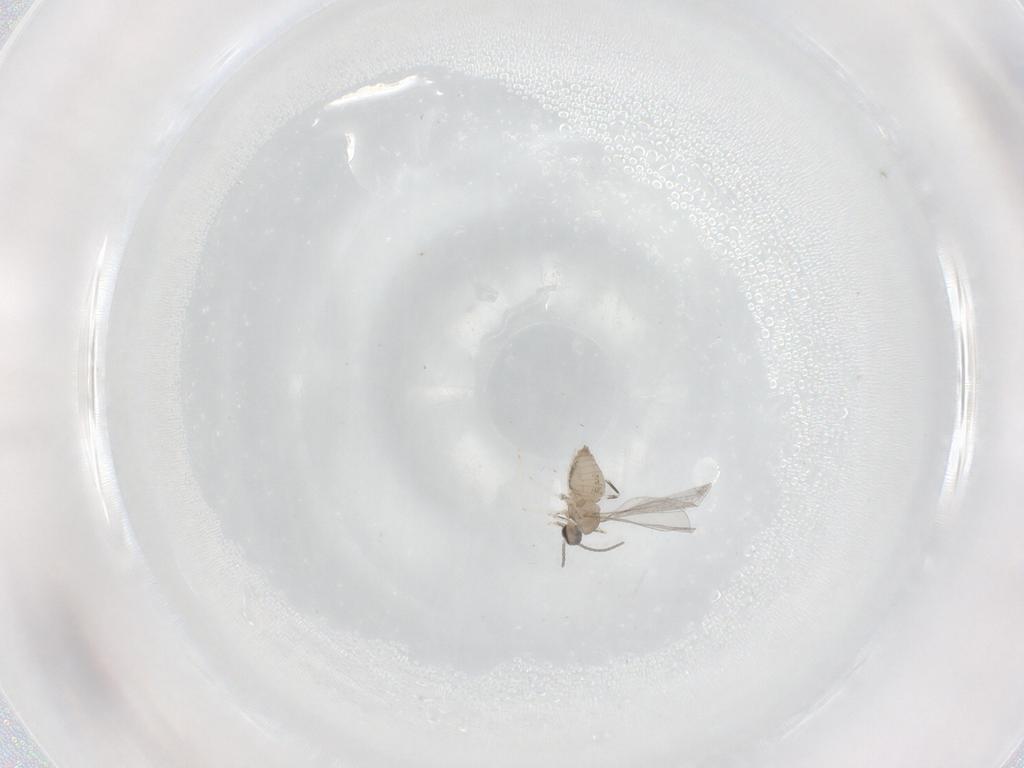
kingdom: Animalia
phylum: Arthropoda
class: Insecta
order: Diptera
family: Cecidomyiidae
